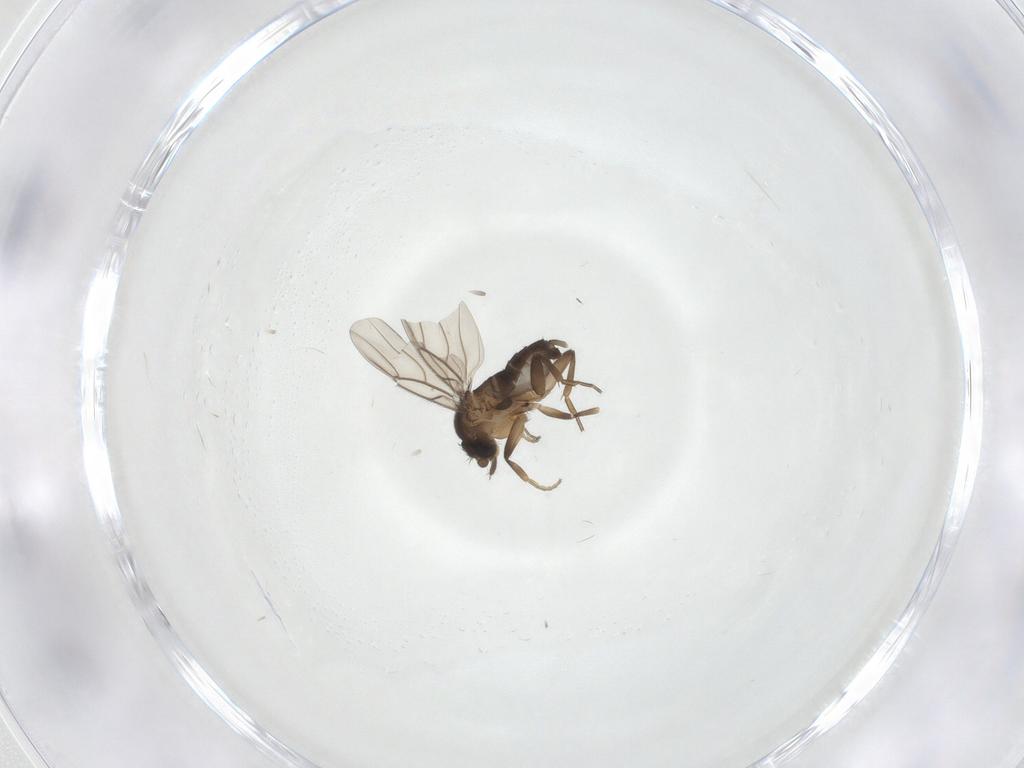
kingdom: Animalia
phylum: Arthropoda
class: Insecta
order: Diptera
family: Phoridae
